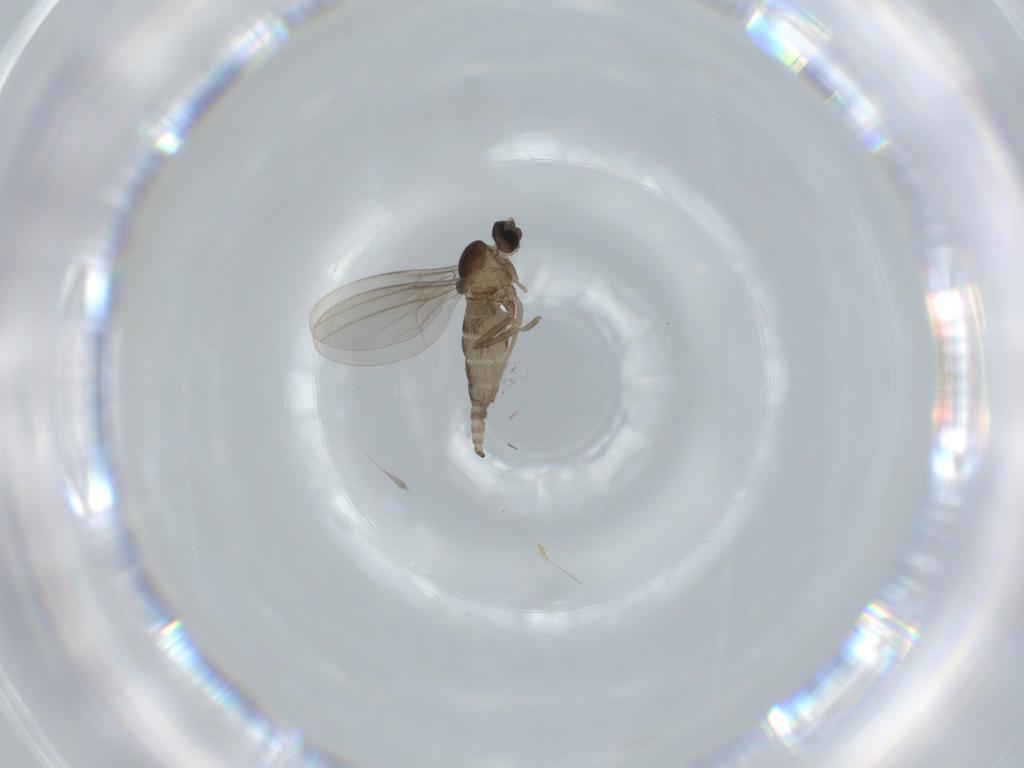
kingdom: Animalia
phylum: Arthropoda
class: Insecta
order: Diptera
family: Cecidomyiidae
